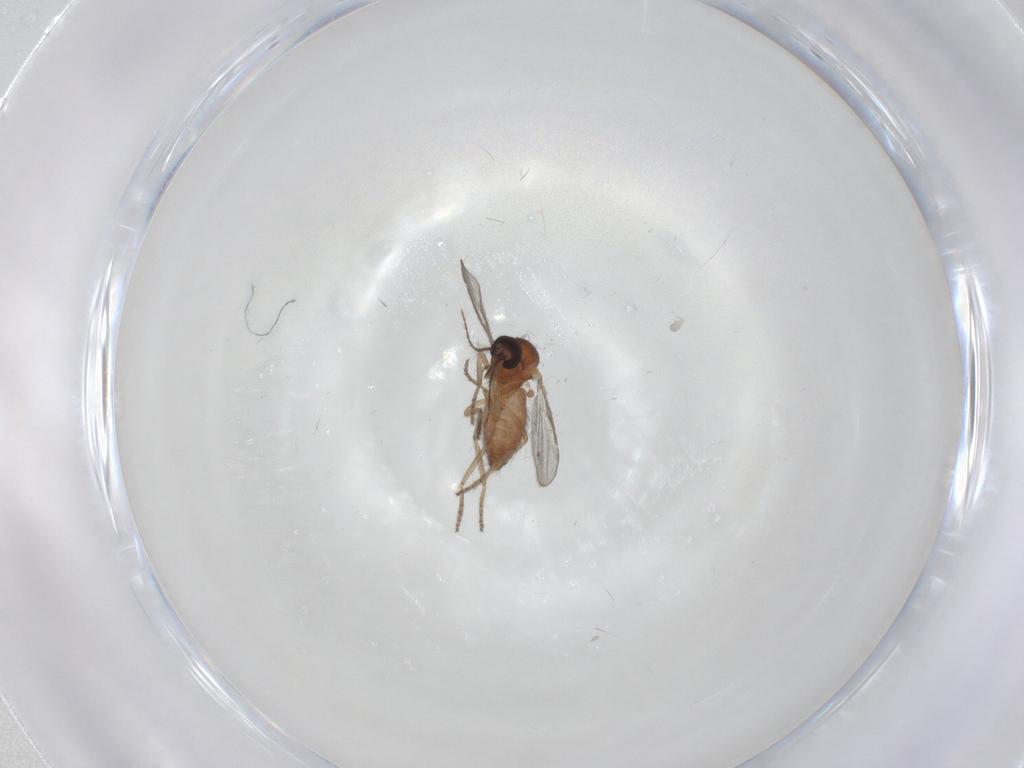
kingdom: Animalia
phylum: Arthropoda
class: Insecta
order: Diptera
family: Ceratopogonidae
